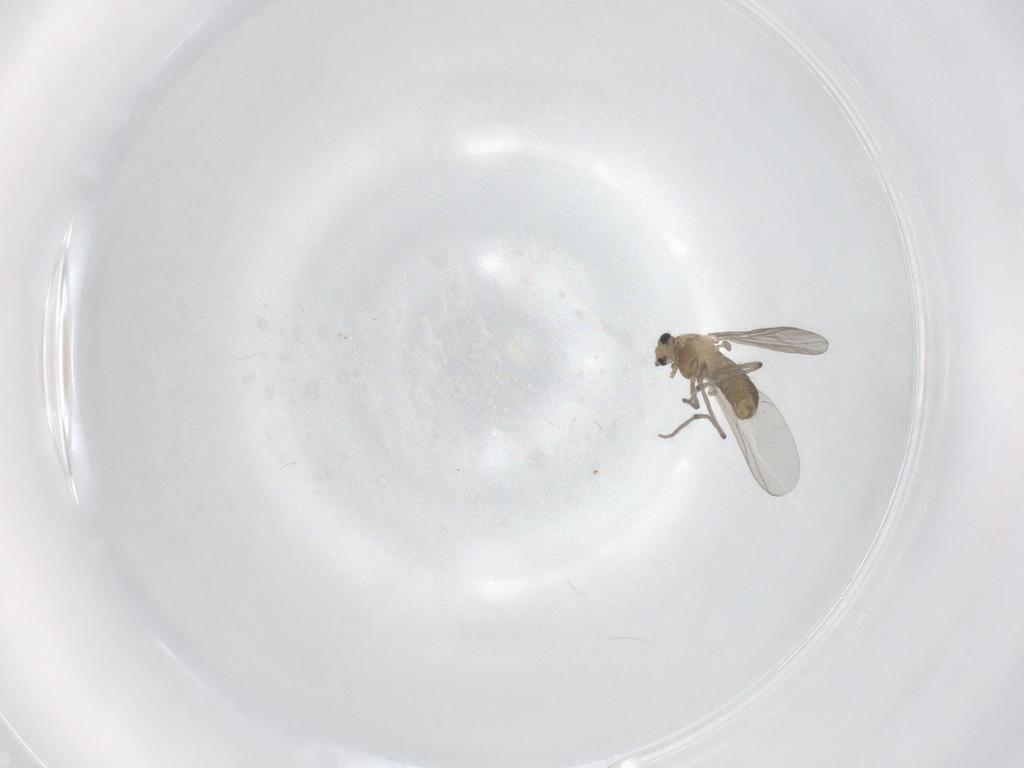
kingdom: Animalia
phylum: Arthropoda
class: Insecta
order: Diptera
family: Chironomidae
